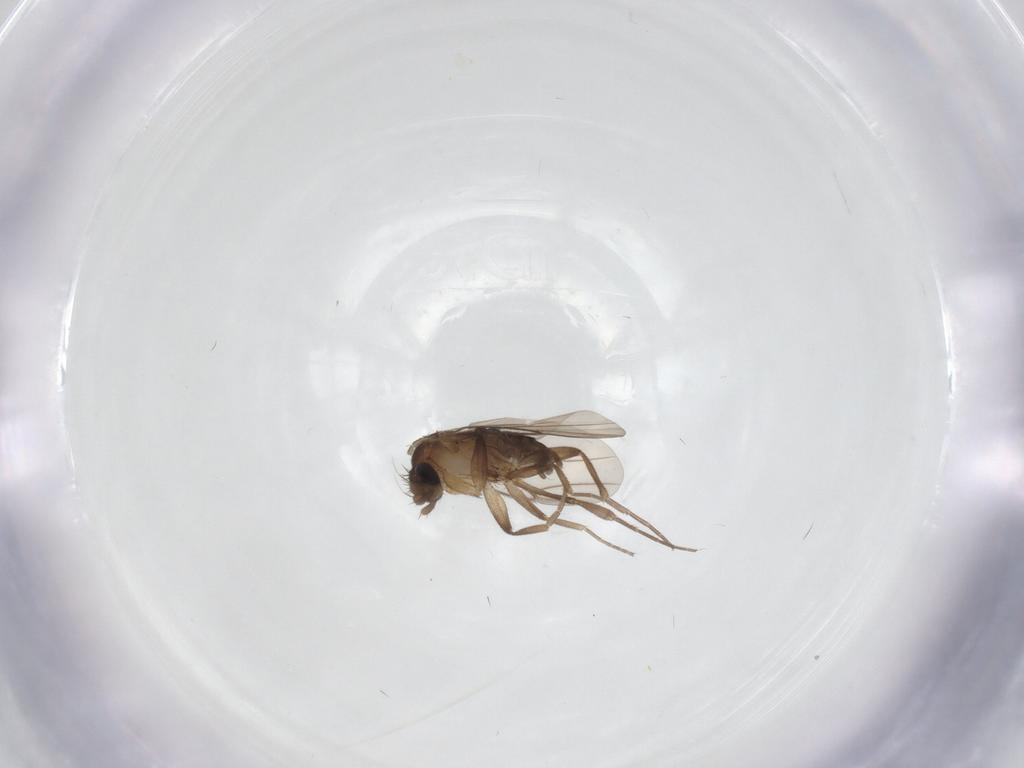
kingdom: Animalia
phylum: Arthropoda
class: Insecta
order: Diptera
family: Phoridae
